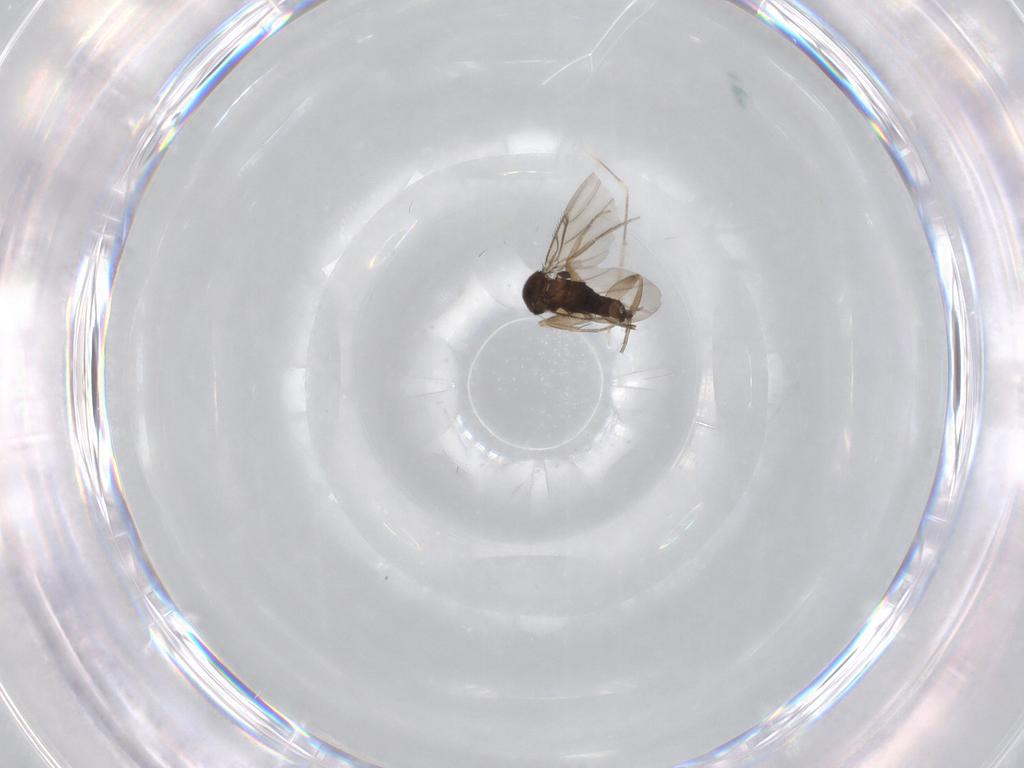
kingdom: Animalia
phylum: Arthropoda
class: Insecta
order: Diptera
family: Phoridae
